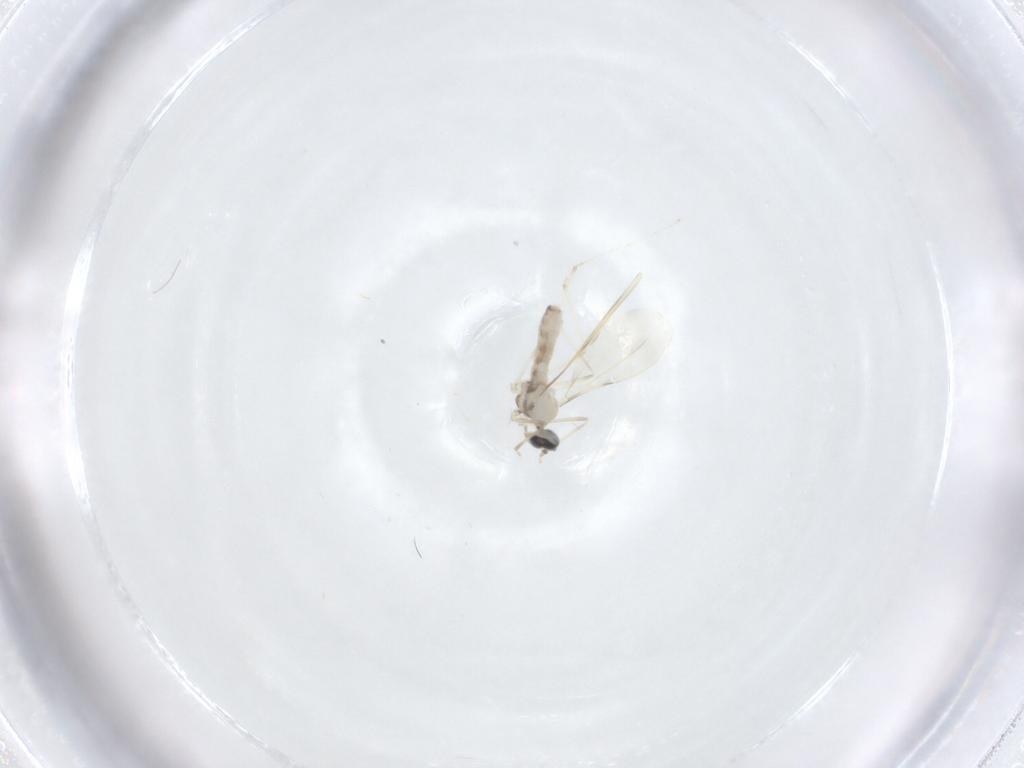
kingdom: Animalia
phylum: Arthropoda
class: Insecta
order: Diptera
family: Cecidomyiidae
